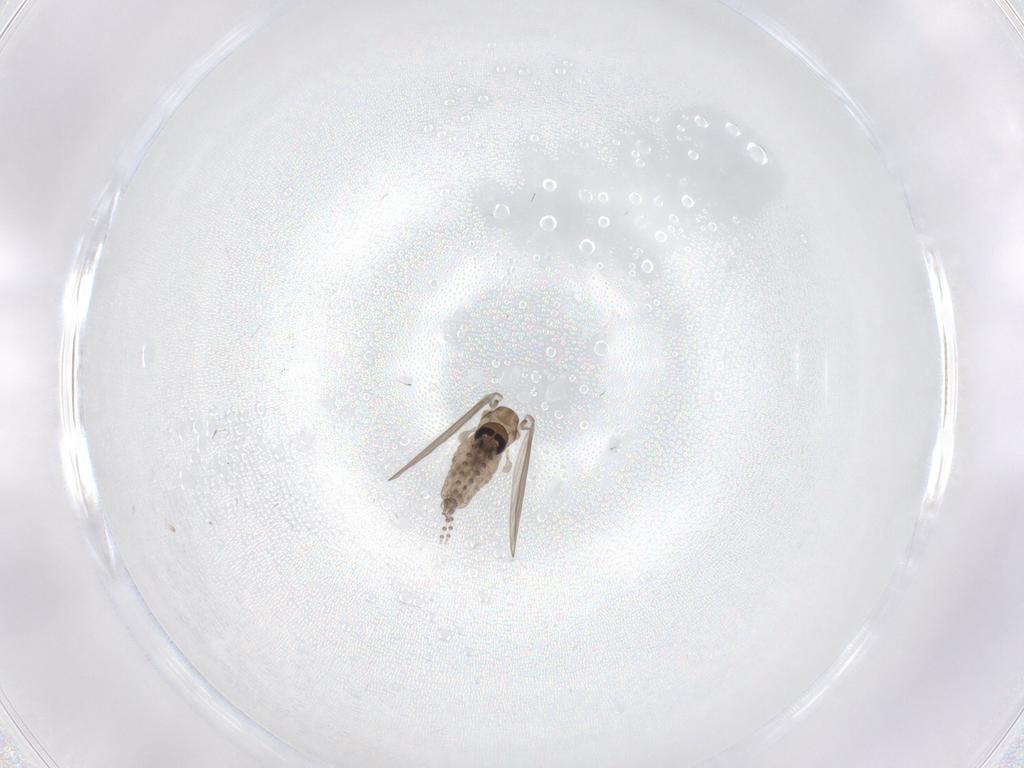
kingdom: Animalia
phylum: Arthropoda
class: Insecta
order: Diptera
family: Psychodidae
